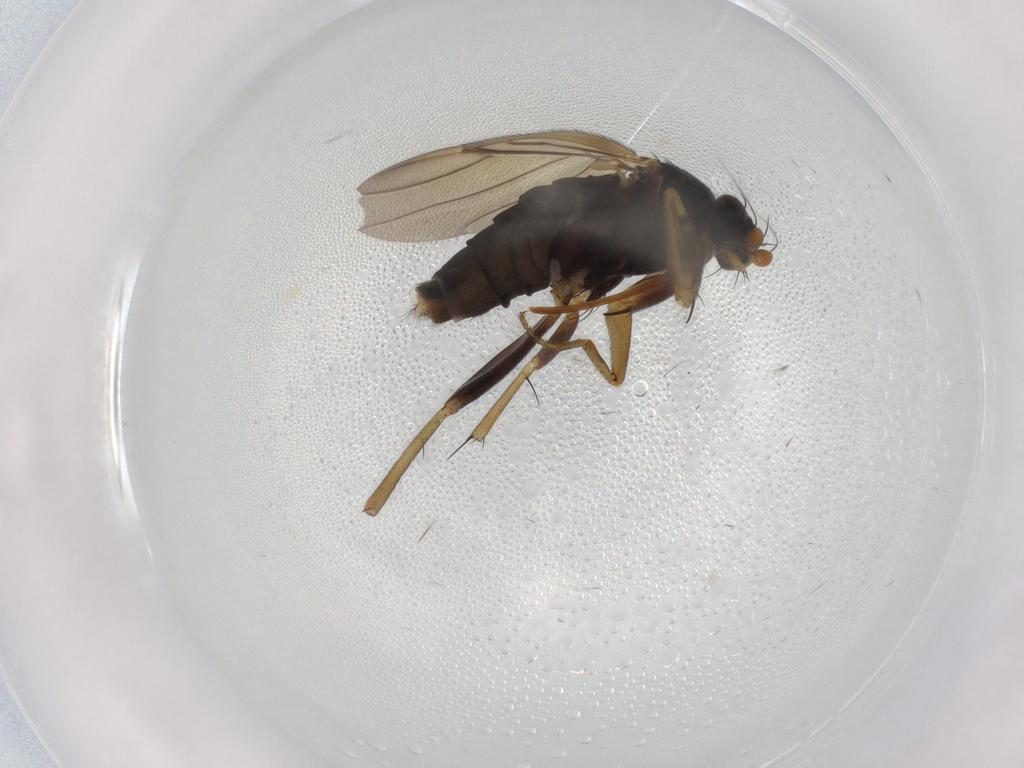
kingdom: Animalia
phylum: Arthropoda
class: Insecta
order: Diptera
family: Phoridae
